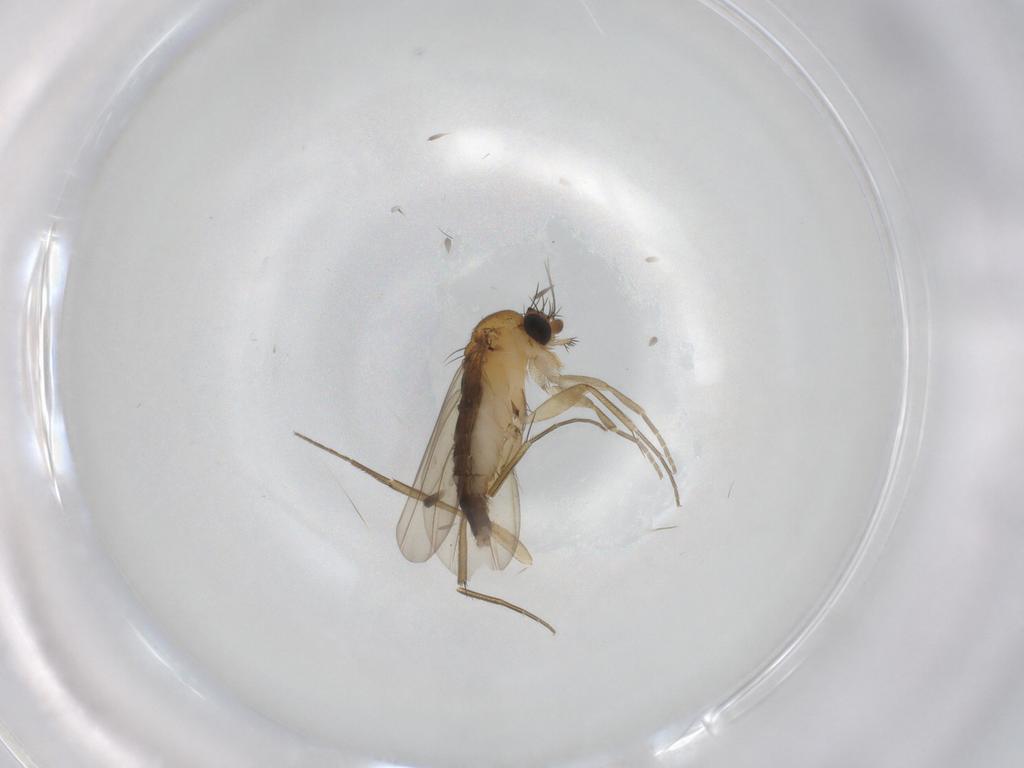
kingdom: Animalia
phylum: Arthropoda
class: Insecta
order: Diptera
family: Phoridae
